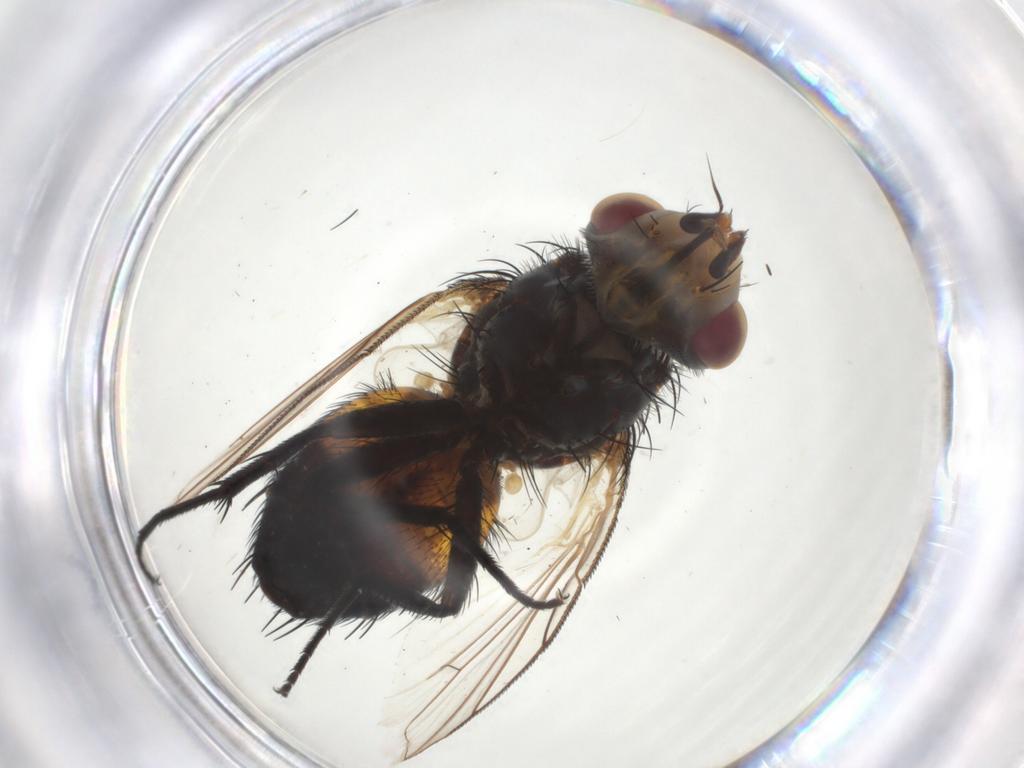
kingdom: Animalia
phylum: Arthropoda
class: Insecta
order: Diptera
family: Tachinidae
